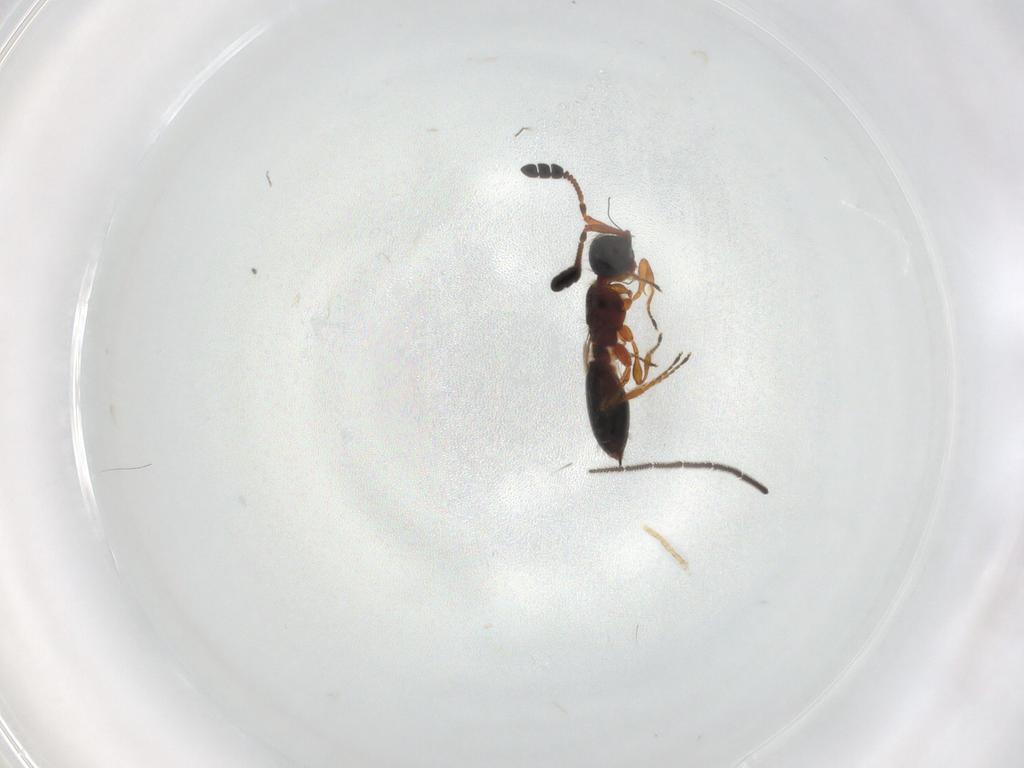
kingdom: Animalia
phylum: Arthropoda
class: Insecta
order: Hymenoptera
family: Diapriidae
